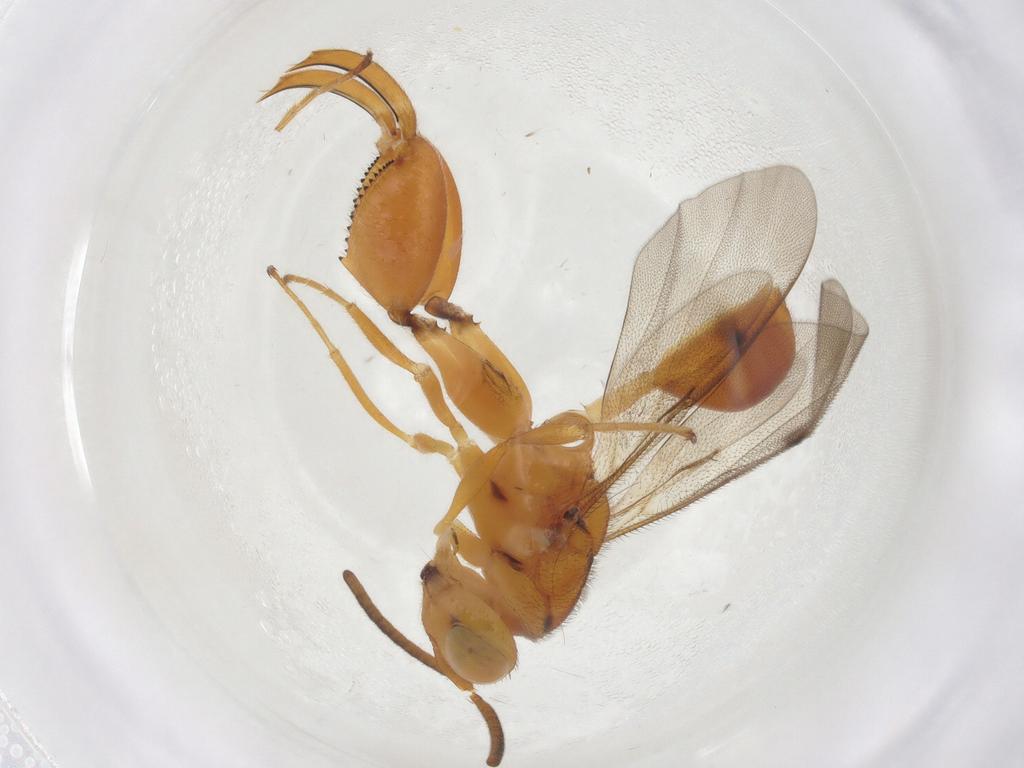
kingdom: Animalia
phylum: Arthropoda
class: Insecta
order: Hymenoptera
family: Chalcididae
